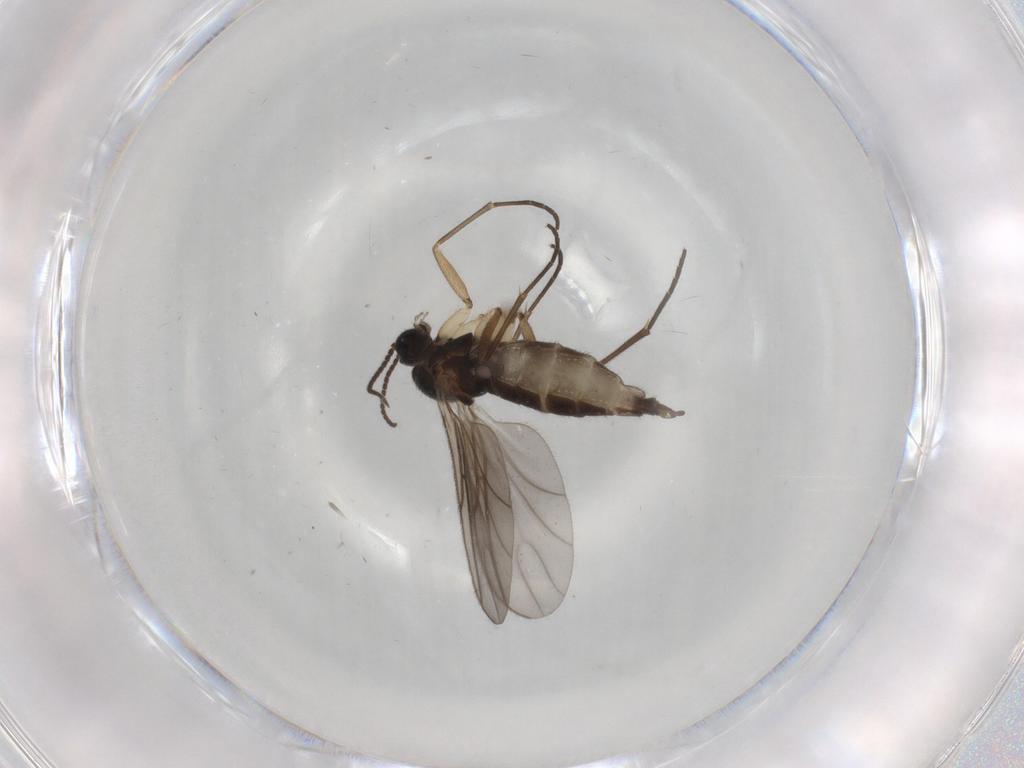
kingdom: Animalia
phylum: Arthropoda
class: Insecta
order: Diptera
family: Sciaridae
